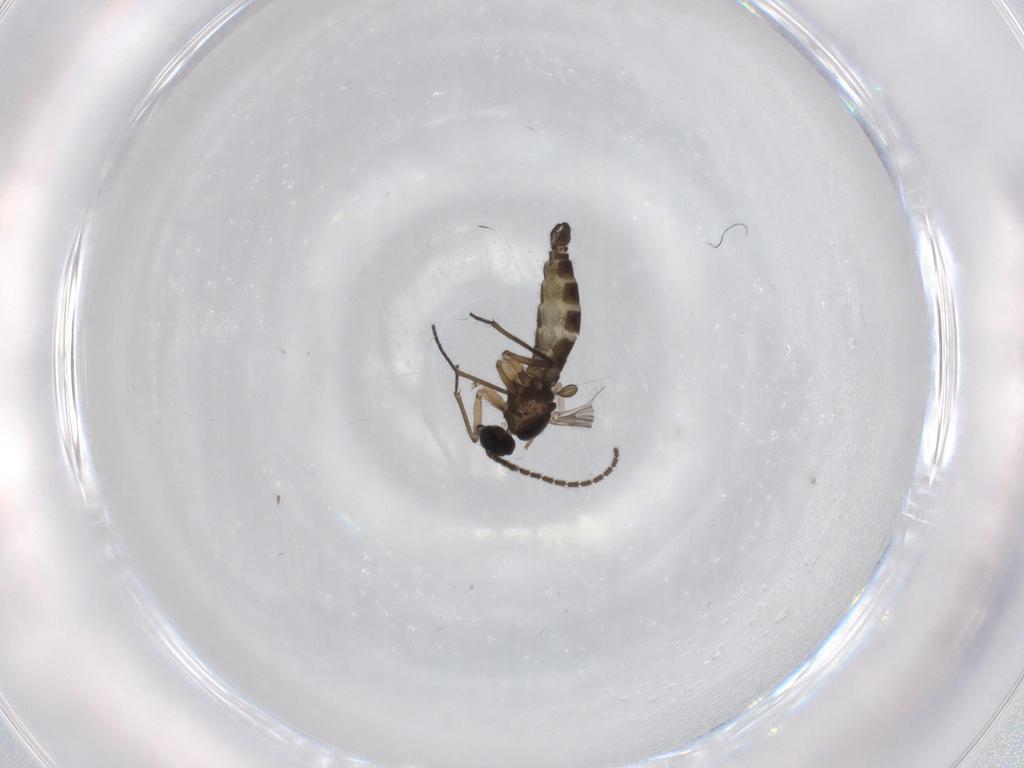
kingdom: Animalia
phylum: Arthropoda
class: Insecta
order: Diptera
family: Sciaridae
